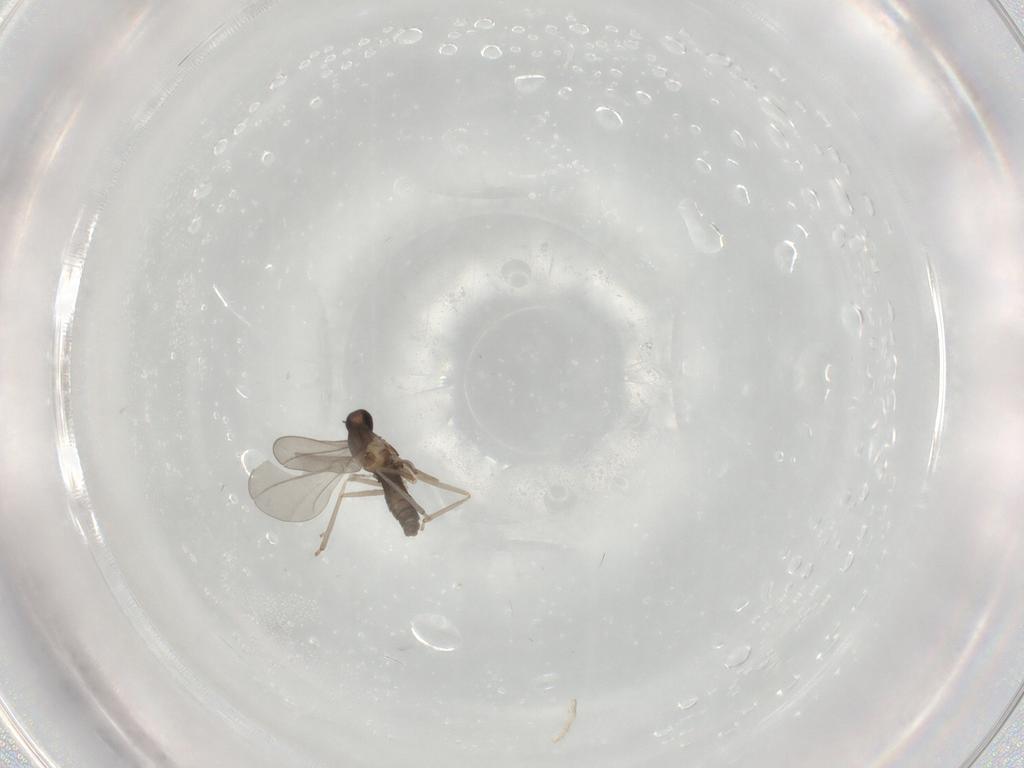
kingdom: Animalia
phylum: Arthropoda
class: Insecta
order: Diptera
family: Cecidomyiidae
